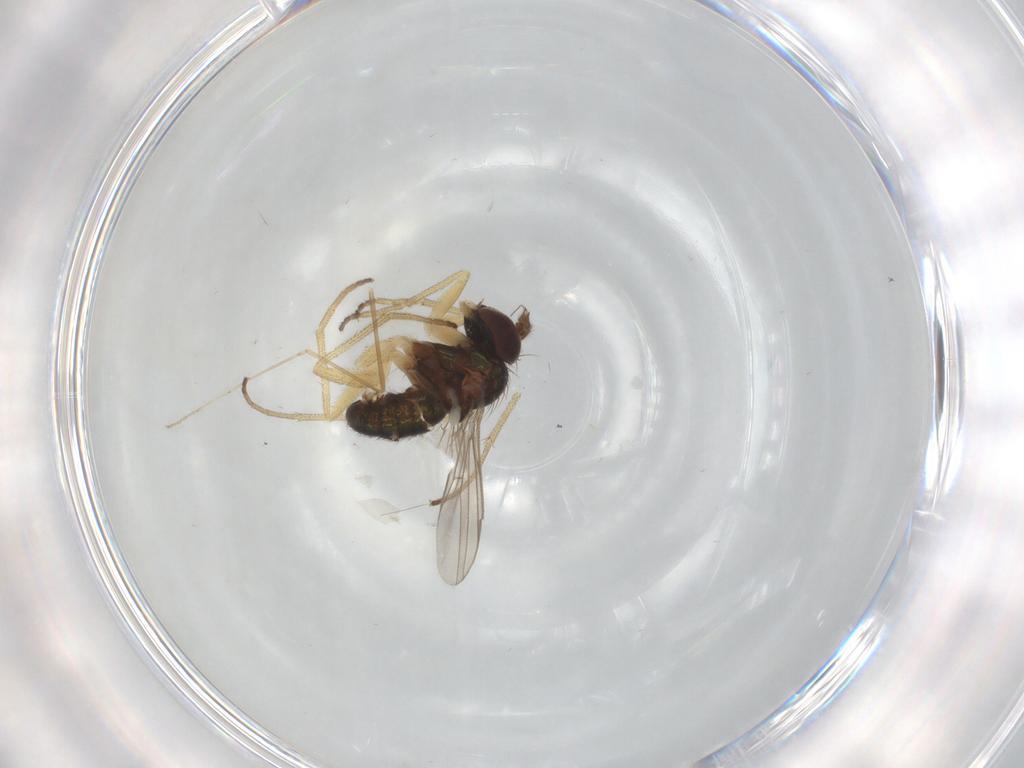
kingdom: Animalia
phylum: Arthropoda
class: Insecta
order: Diptera
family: Dolichopodidae
